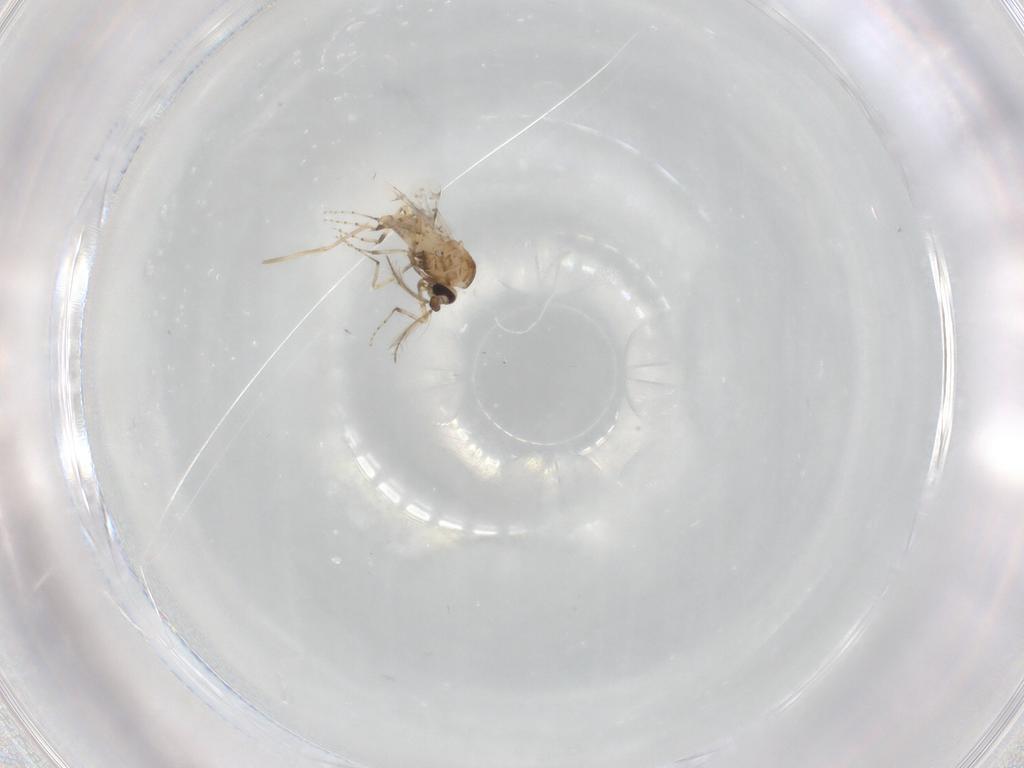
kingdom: Animalia
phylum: Arthropoda
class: Insecta
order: Diptera
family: Ceratopogonidae
